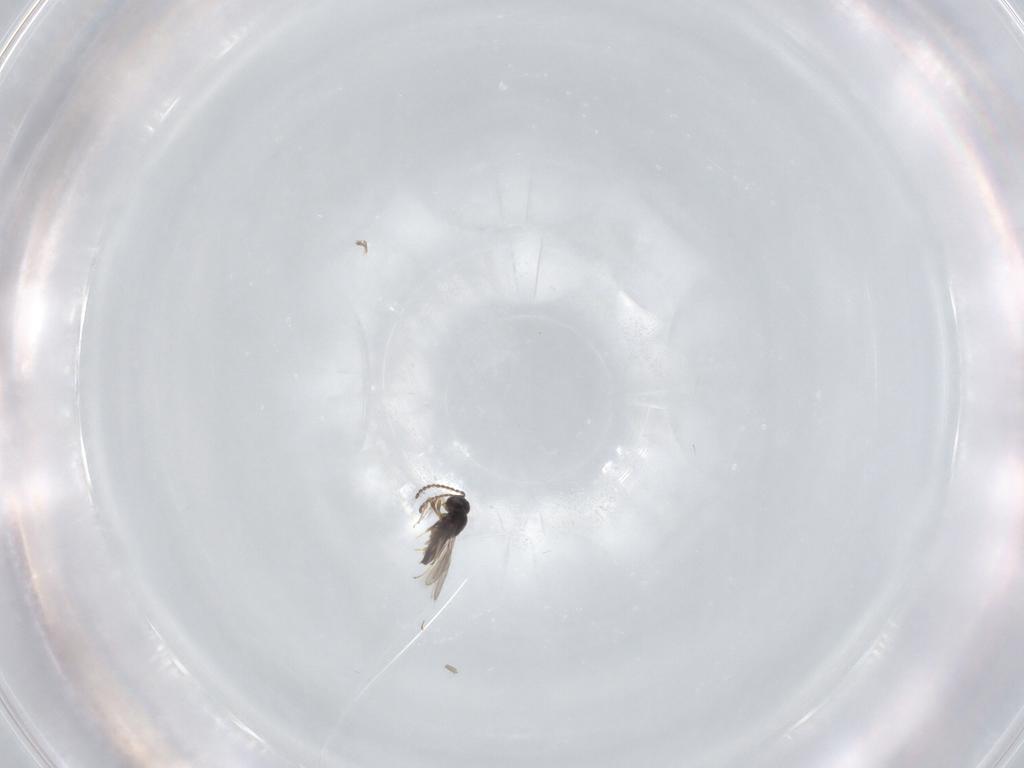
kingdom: Animalia
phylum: Arthropoda
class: Insecta
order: Hymenoptera
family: Scelionidae
